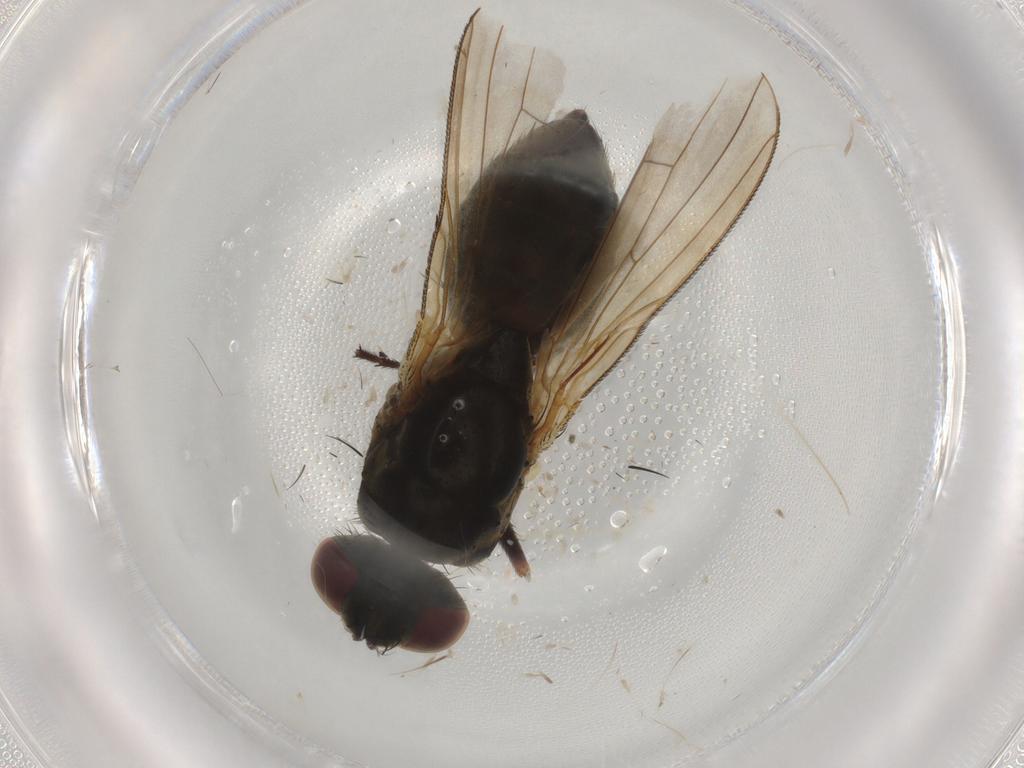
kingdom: Animalia
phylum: Arthropoda
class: Insecta
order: Diptera
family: Muscidae
